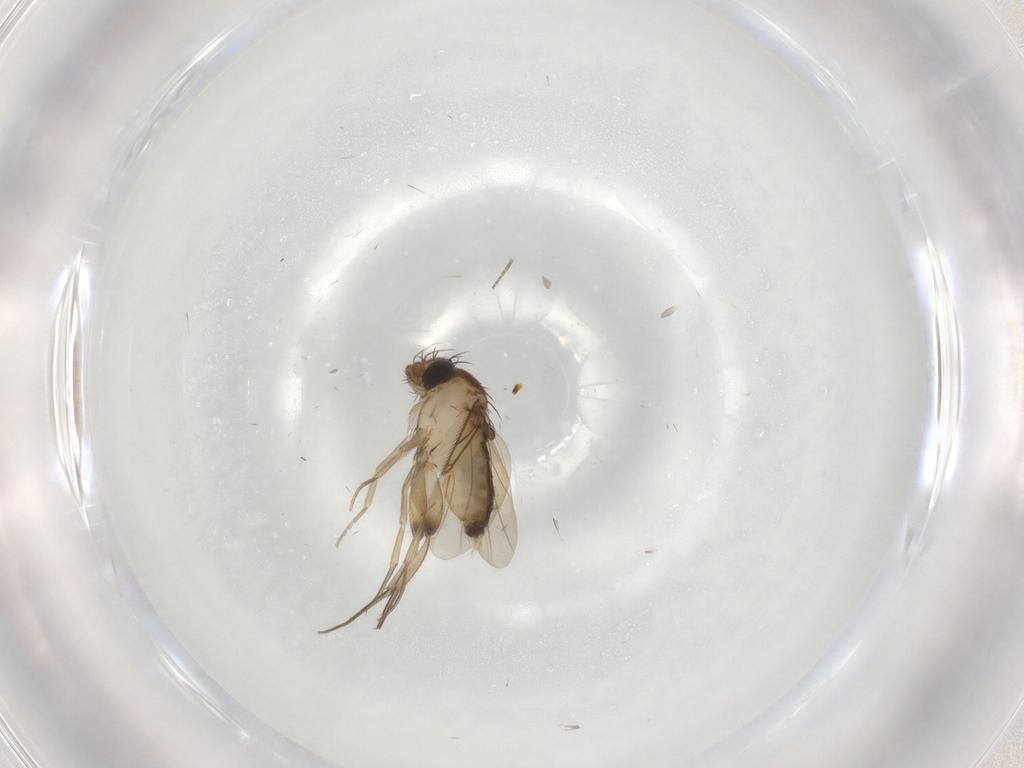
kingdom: Animalia
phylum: Arthropoda
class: Insecta
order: Diptera
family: Phoridae
